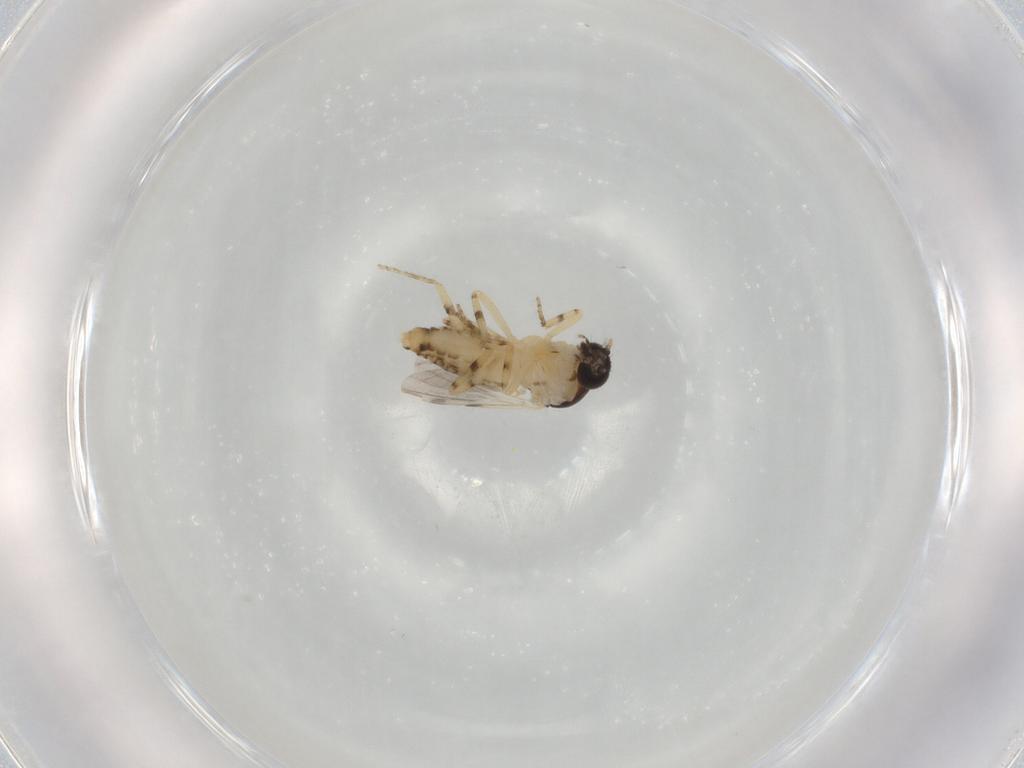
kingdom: Animalia
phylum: Arthropoda
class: Insecta
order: Diptera
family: Ceratopogonidae
